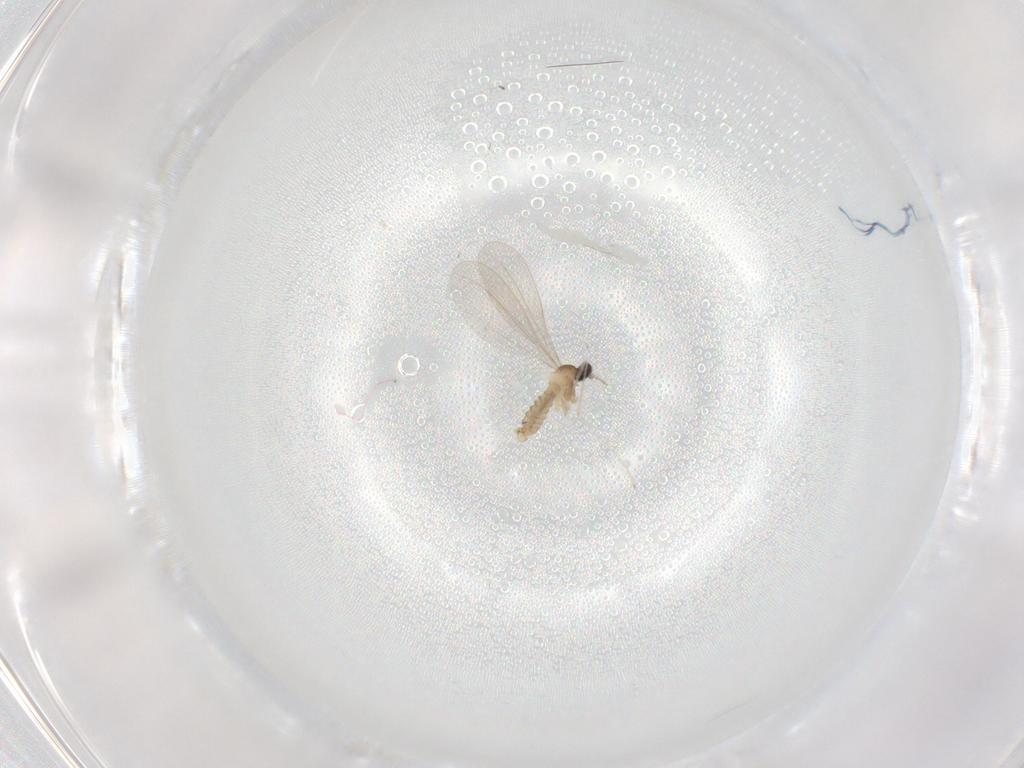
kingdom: Animalia
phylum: Arthropoda
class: Insecta
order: Diptera
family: Cecidomyiidae
